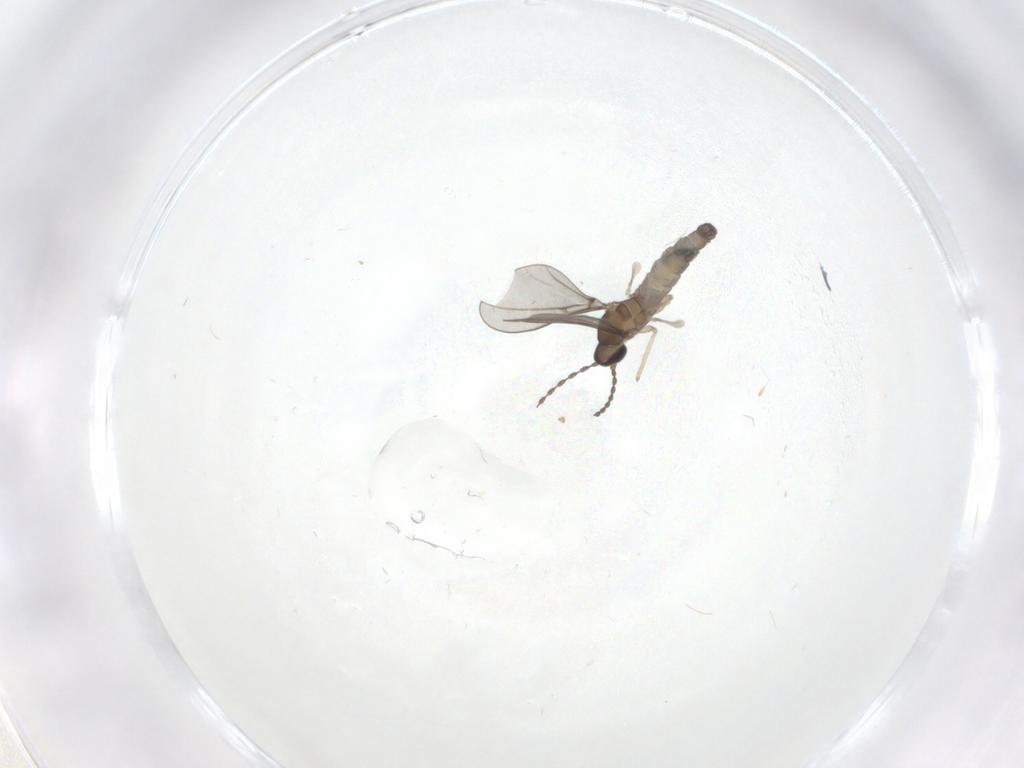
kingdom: Animalia
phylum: Arthropoda
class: Insecta
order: Diptera
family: Cecidomyiidae
